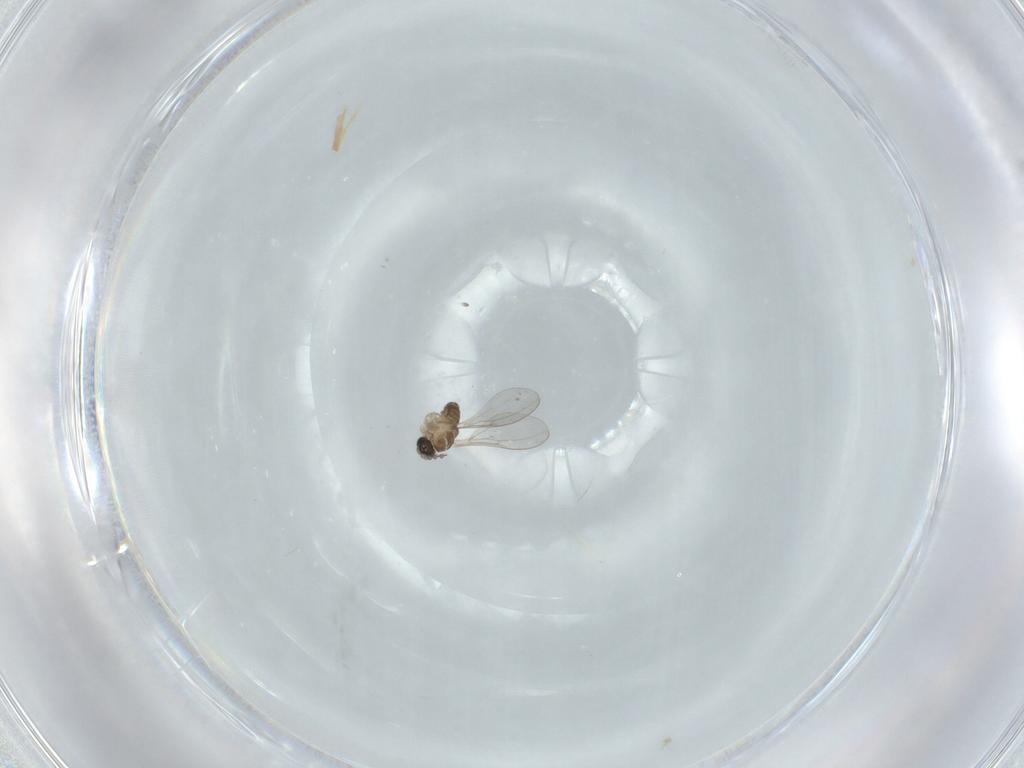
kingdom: Animalia
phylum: Arthropoda
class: Insecta
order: Diptera
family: Cecidomyiidae
